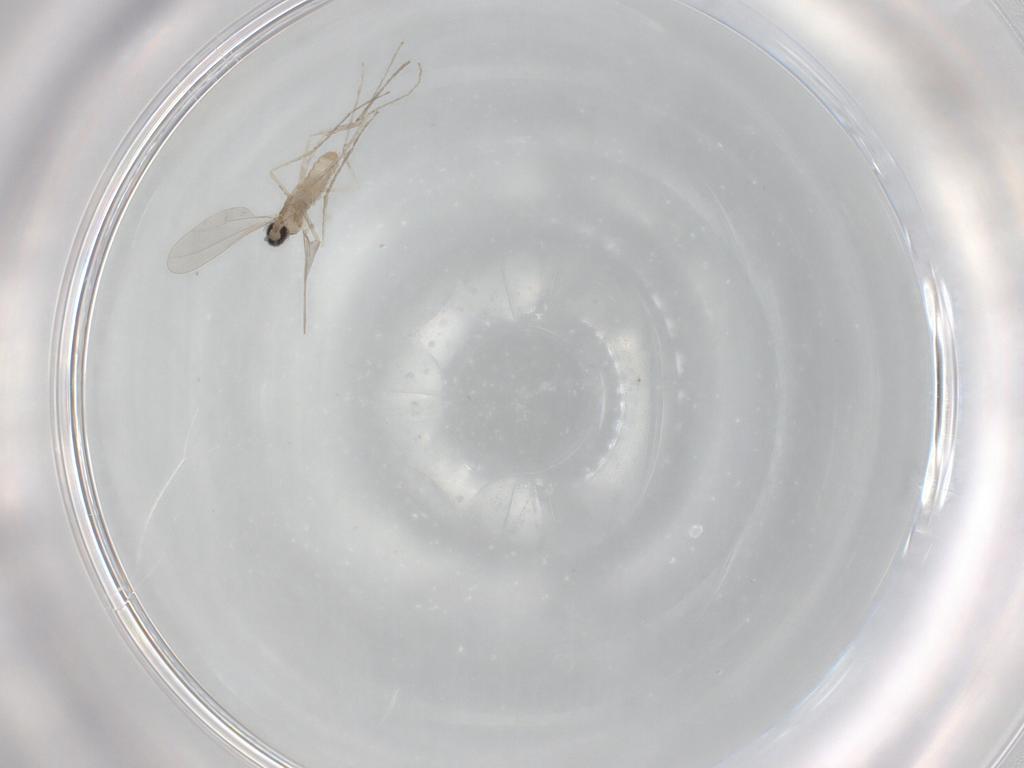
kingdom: Animalia
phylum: Arthropoda
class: Insecta
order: Diptera
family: Cecidomyiidae
